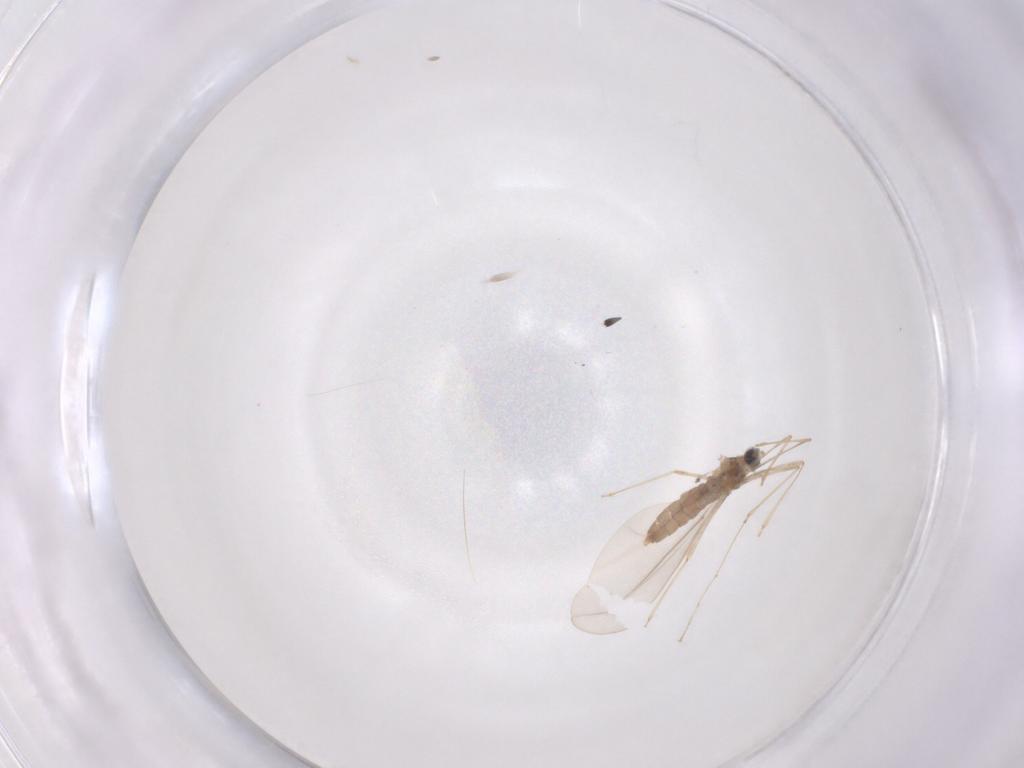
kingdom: Animalia
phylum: Arthropoda
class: Insecta
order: Diptera
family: Cecidomyiidae
